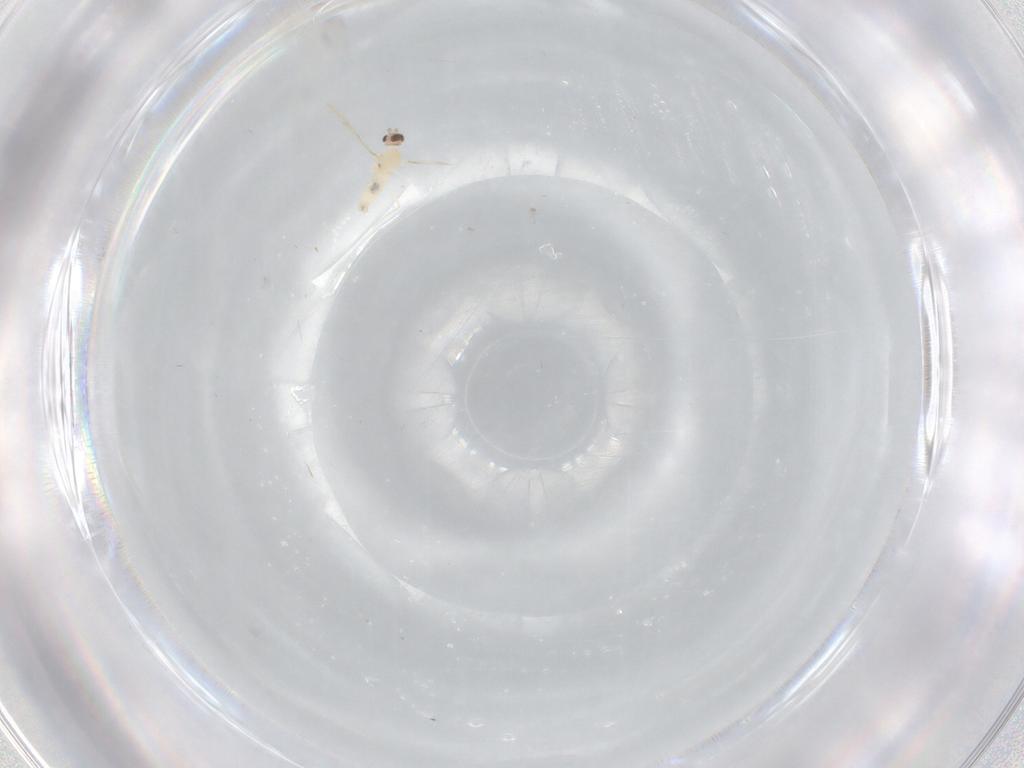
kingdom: Animalia
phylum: Arthropoda
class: Insecta
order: Diptera
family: Cecidomyiidae
